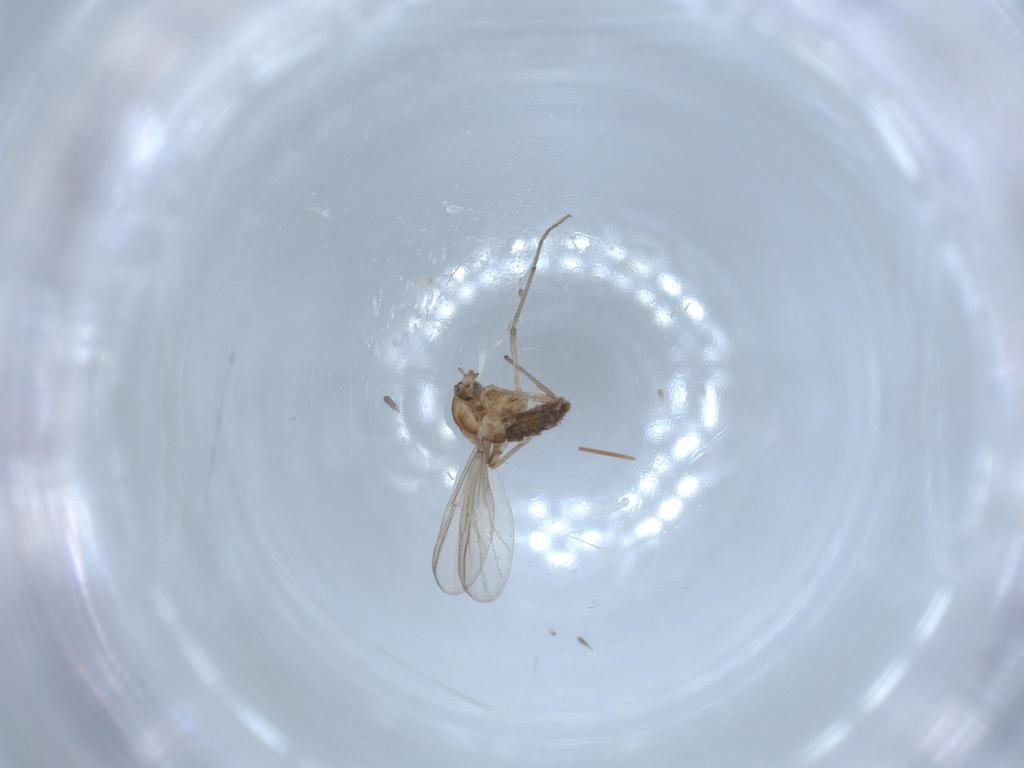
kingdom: Animalia
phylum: Arthropoda
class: Insecta
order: Diptera
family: Chironomidae
